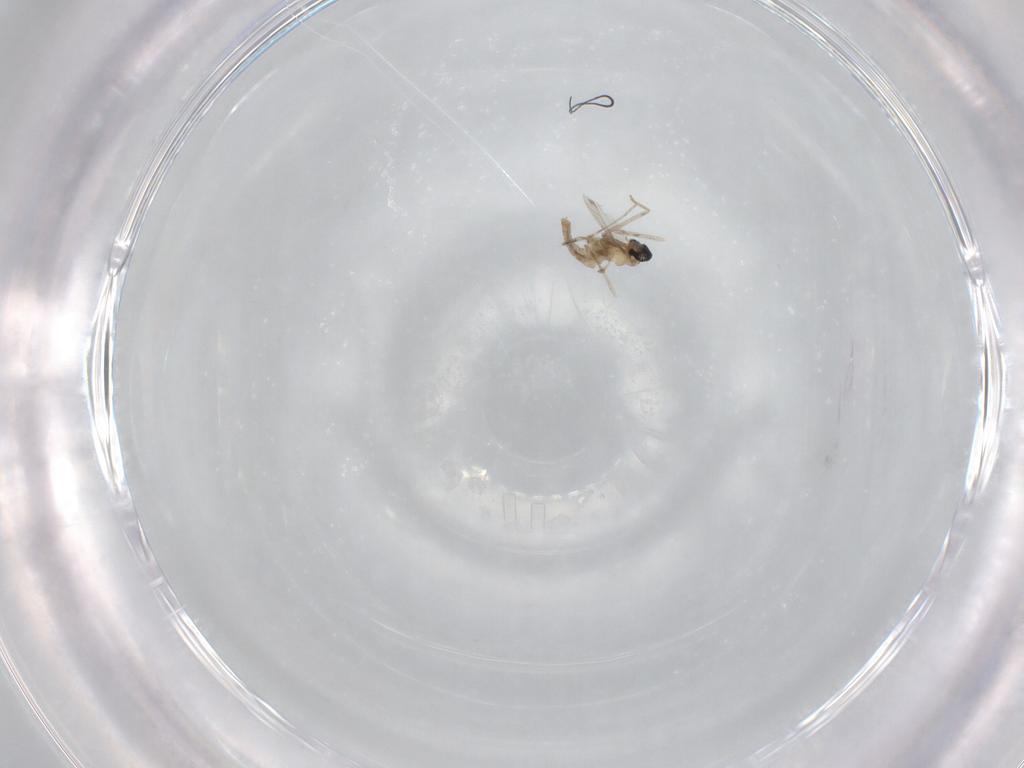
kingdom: Animalia
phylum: Arthropoda
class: Insecta
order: Diptera
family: Cecidomyiidae
